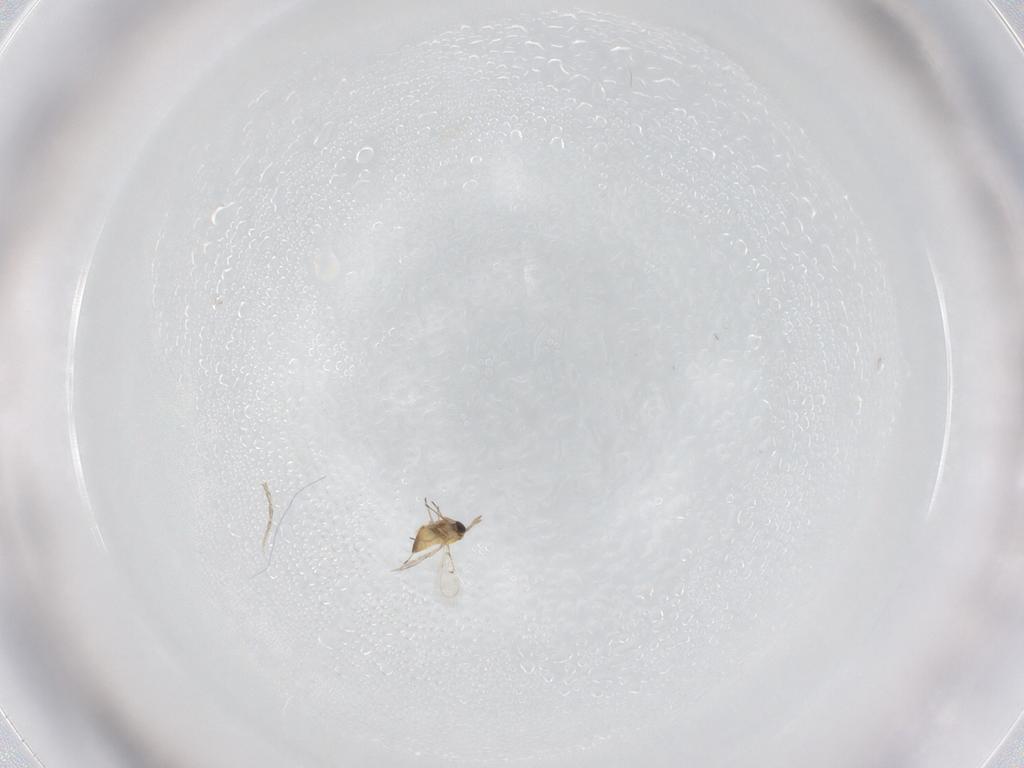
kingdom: Animalia
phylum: Arthropoda
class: Insecta
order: Hymenoptera
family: Trichogrammatidae
